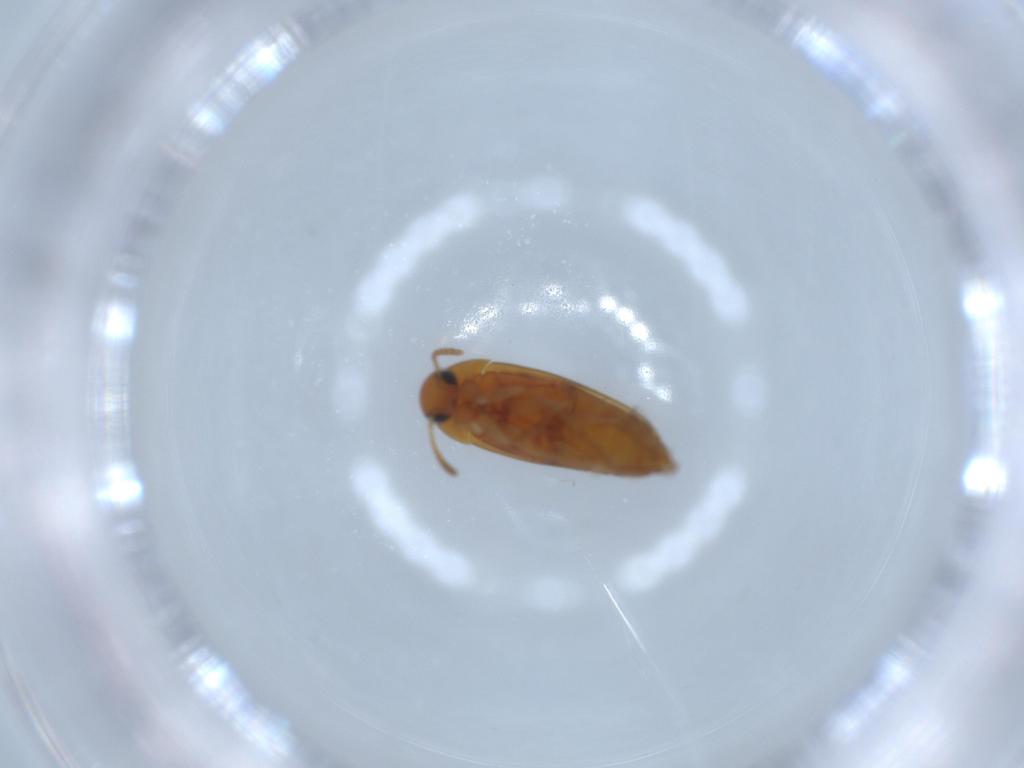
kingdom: Animalia
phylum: Arthropoda
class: Insecta
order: Coleoptera
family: Scraptiidae
